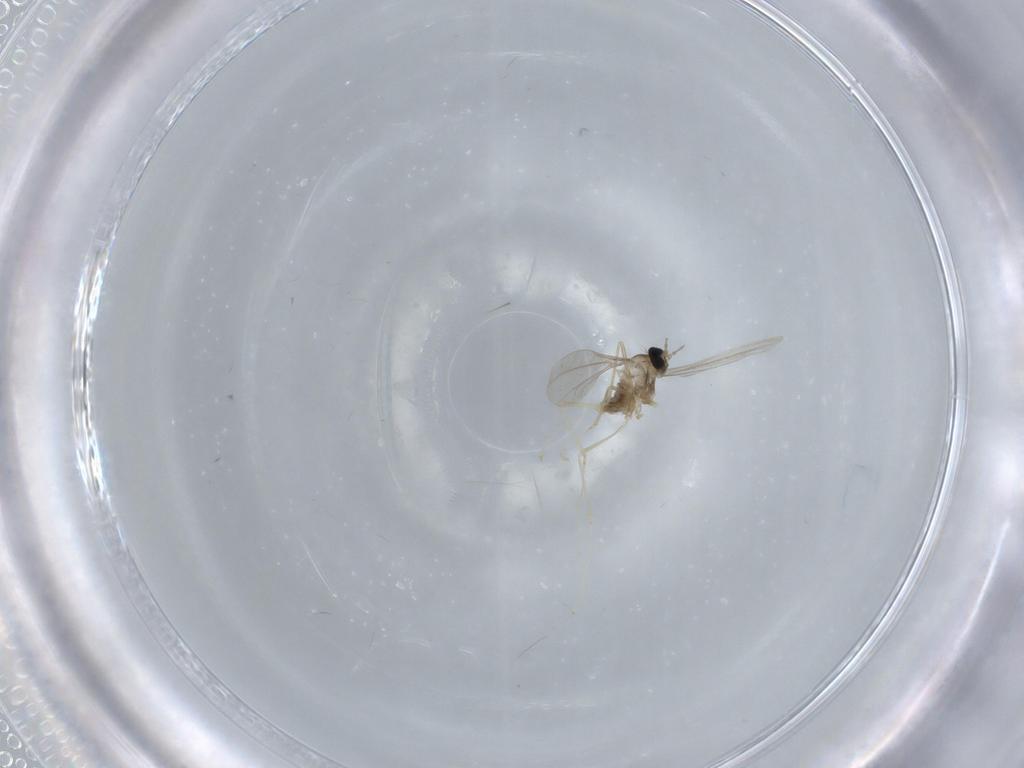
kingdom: Animalia
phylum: Arthropoda
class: Insecta
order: Diptera
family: Cecidomyiidae
